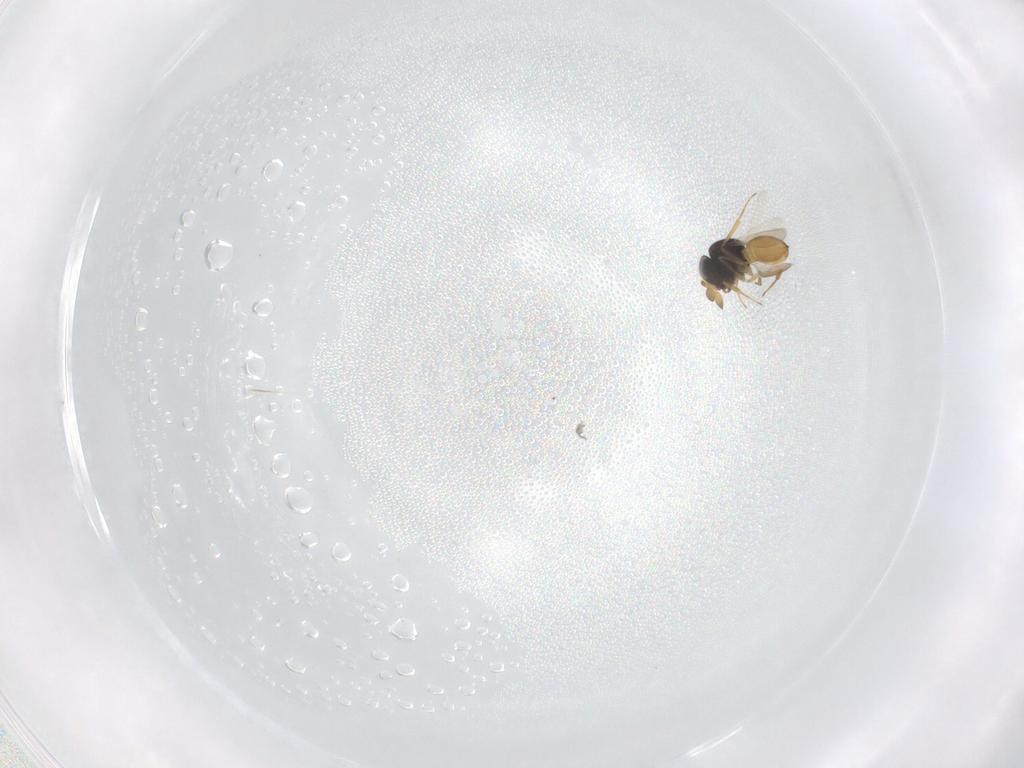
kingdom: Animalia
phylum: Arthropoda
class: Insecta
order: Hymenoptera
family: Scelionidae
